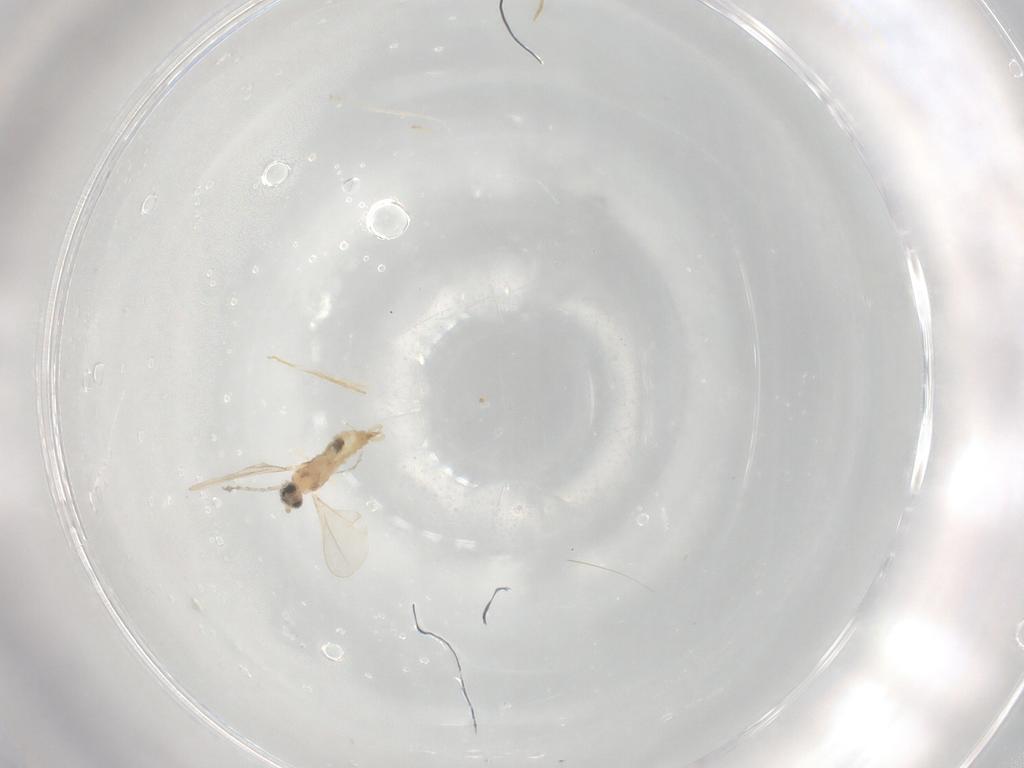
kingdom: Animalia
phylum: Arthropoda
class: Insecta
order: Diptera
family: Cecidomyiidae
